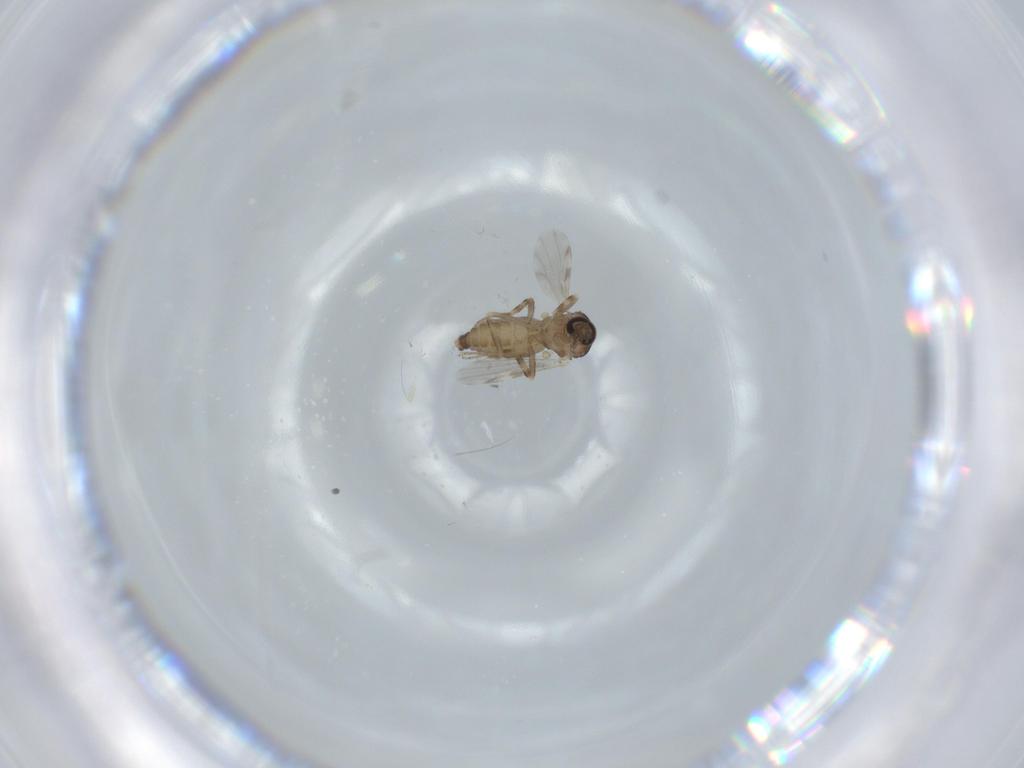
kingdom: Animalia
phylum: Arthropoda
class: Insecta
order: Diptera
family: Ceratopogonidae
